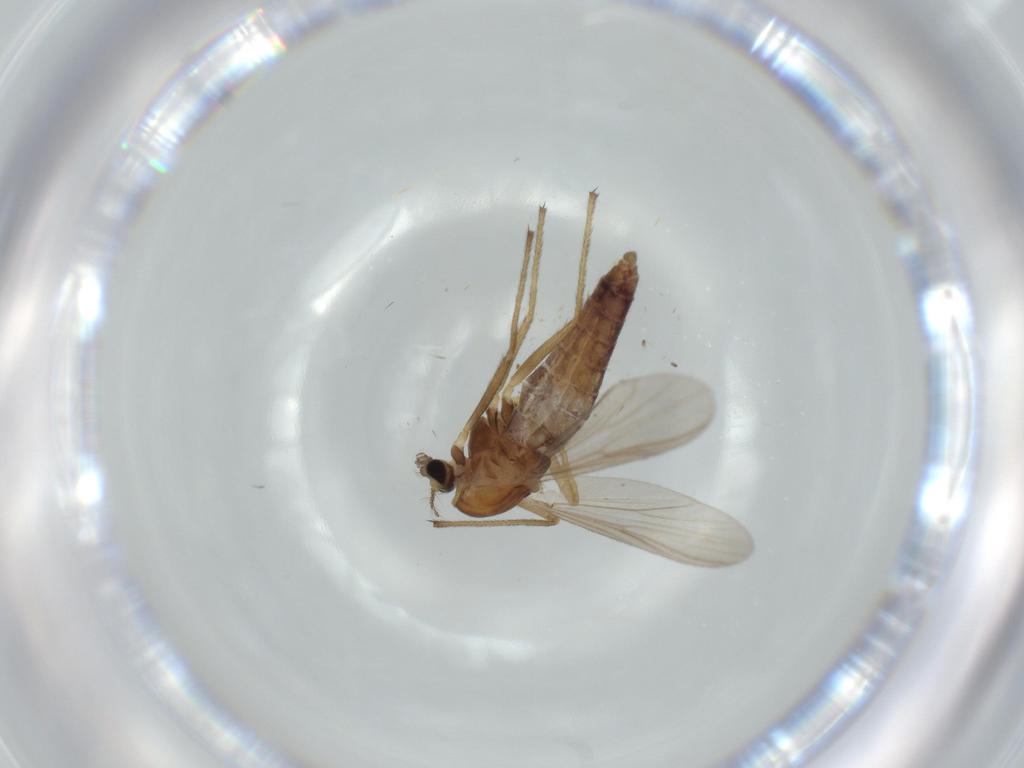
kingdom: Animalia
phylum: Arthropoda
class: Insecta
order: Diptera
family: Chironomidae
